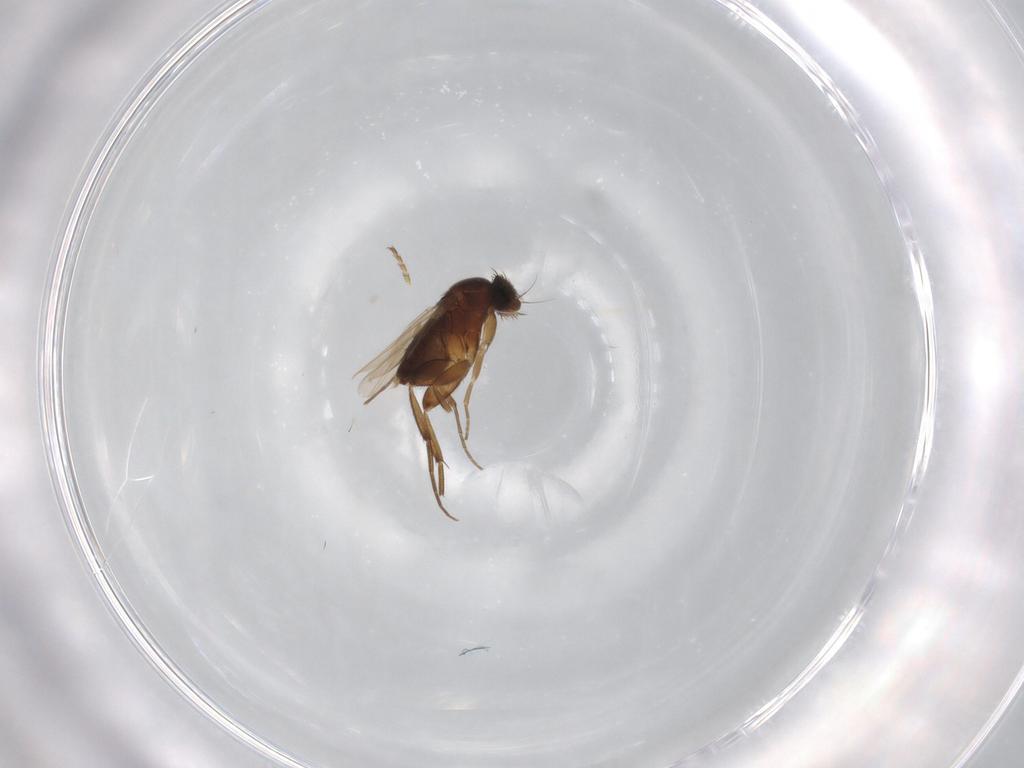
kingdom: Animalia
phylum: Arthropoda
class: Insecta
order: Diptera
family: Phoridae
